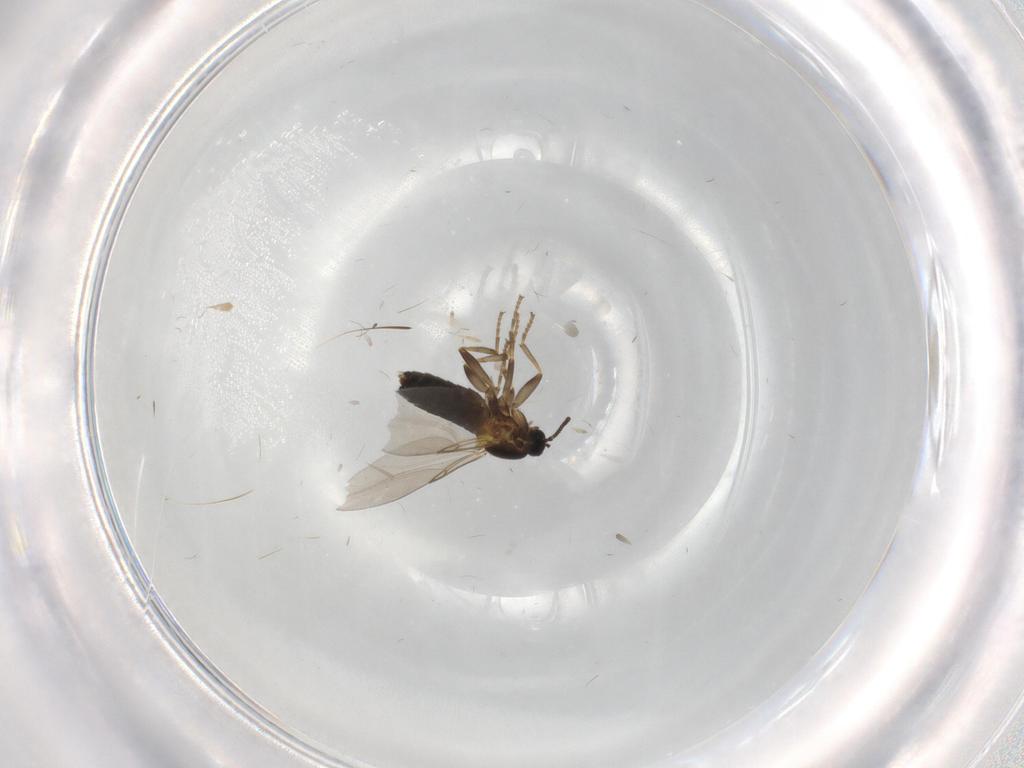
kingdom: Animalia
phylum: Arthropoda
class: Insecta
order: Diptera
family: Scatopsidae
